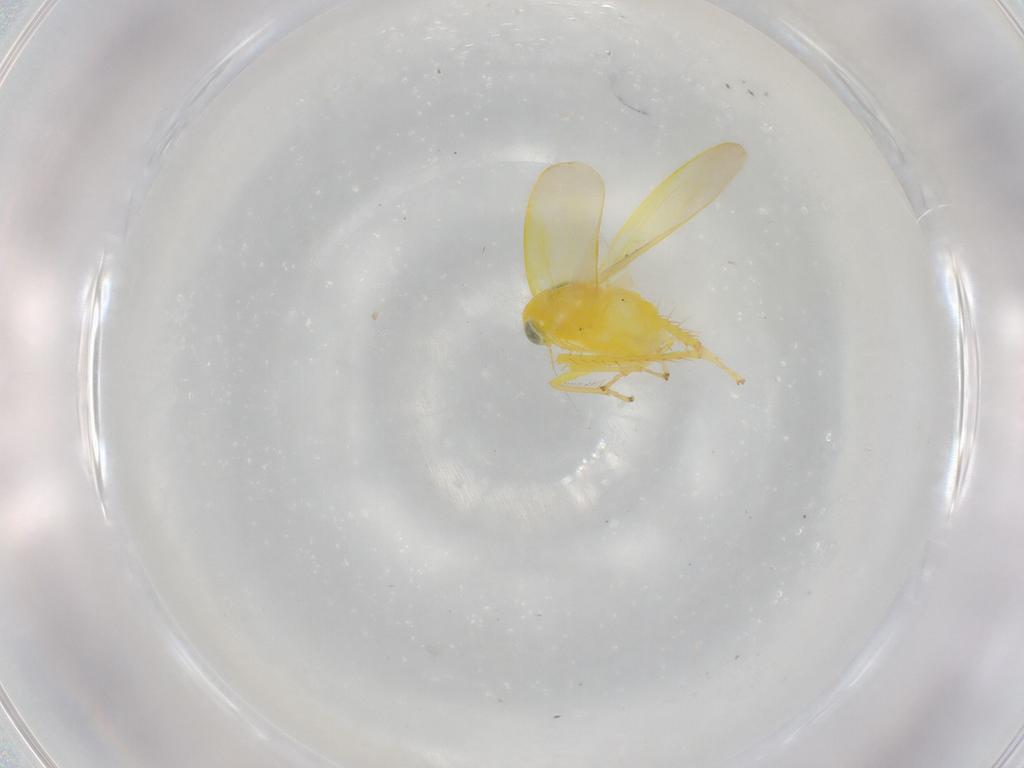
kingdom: Animalia
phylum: Arthropoda
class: Insecta
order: Hemiptera
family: Cicadellidae
